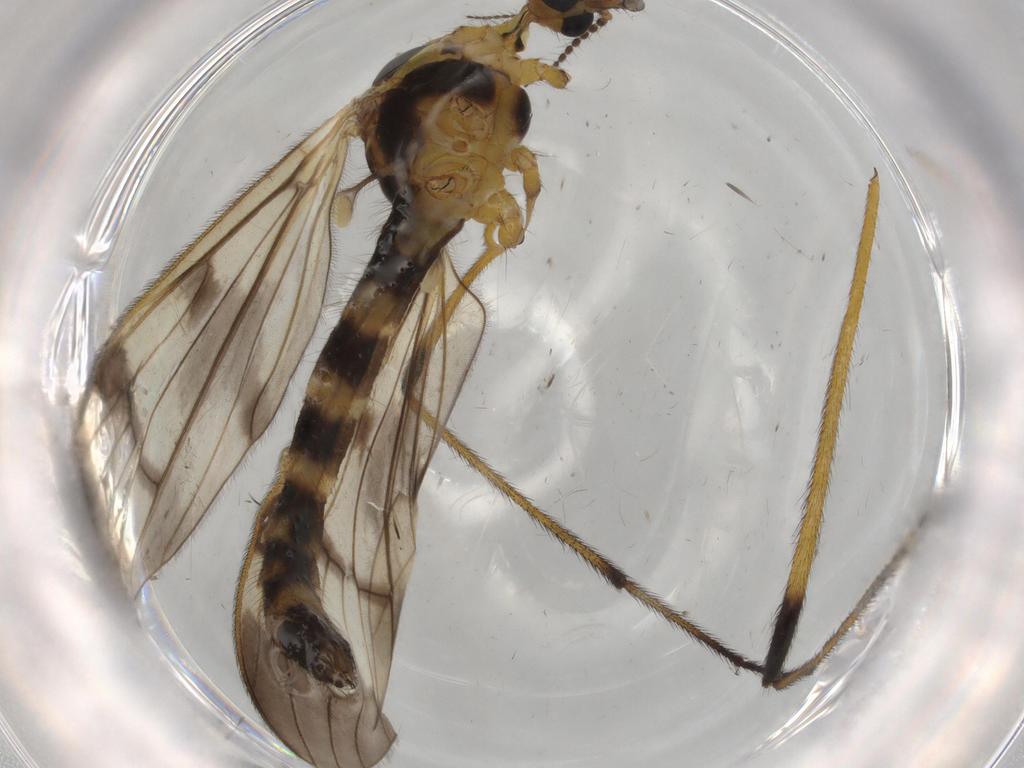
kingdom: Animalia
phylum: Arthropoda
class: Insecta
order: Diptera
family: Limoniidae
